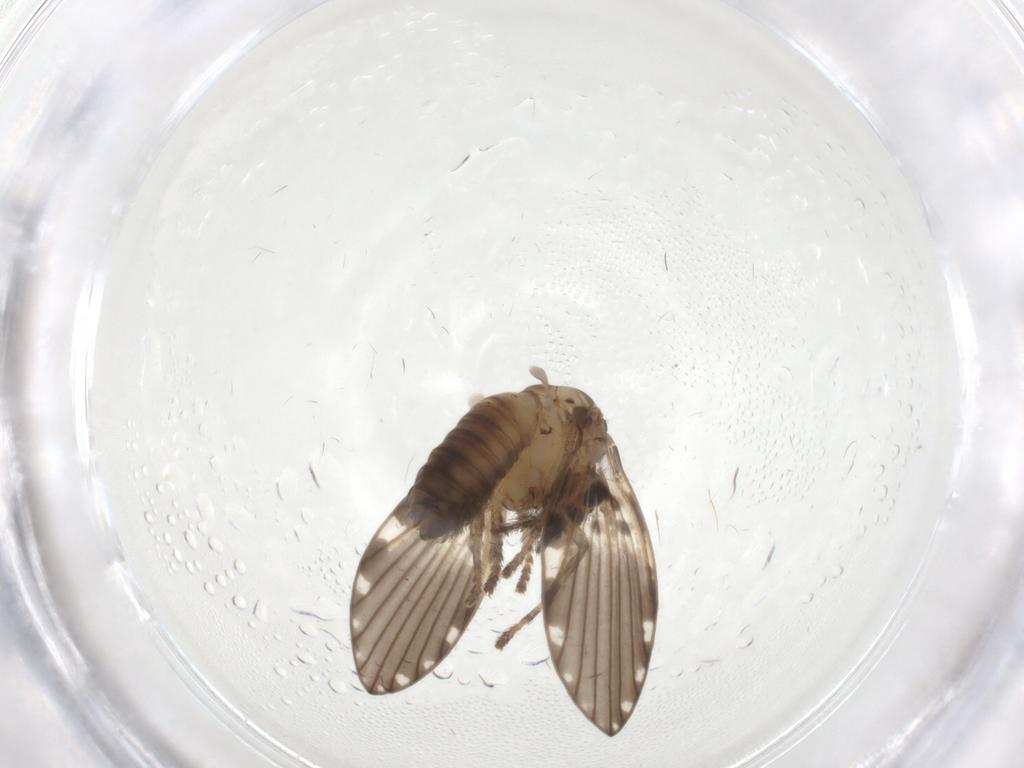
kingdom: Animalia
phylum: Arthropoda
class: Insecta
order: Diptera
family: Psychodidae
